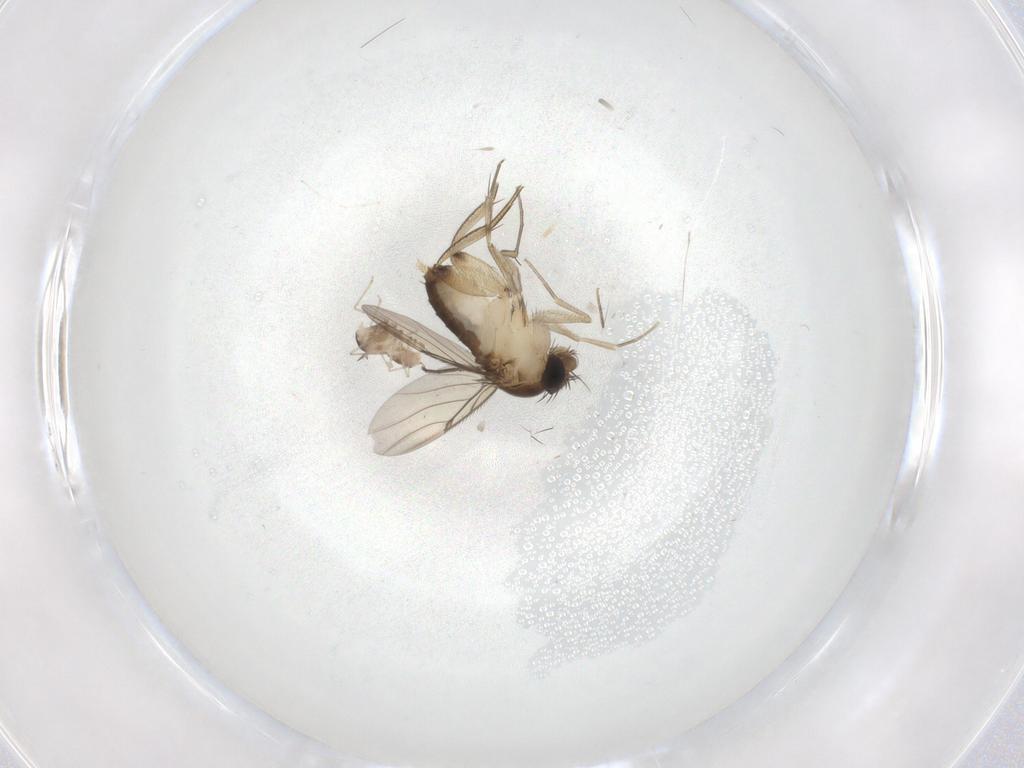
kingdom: Animalia
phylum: Arthropoda
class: Insecta
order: Diptera
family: Phoridae
